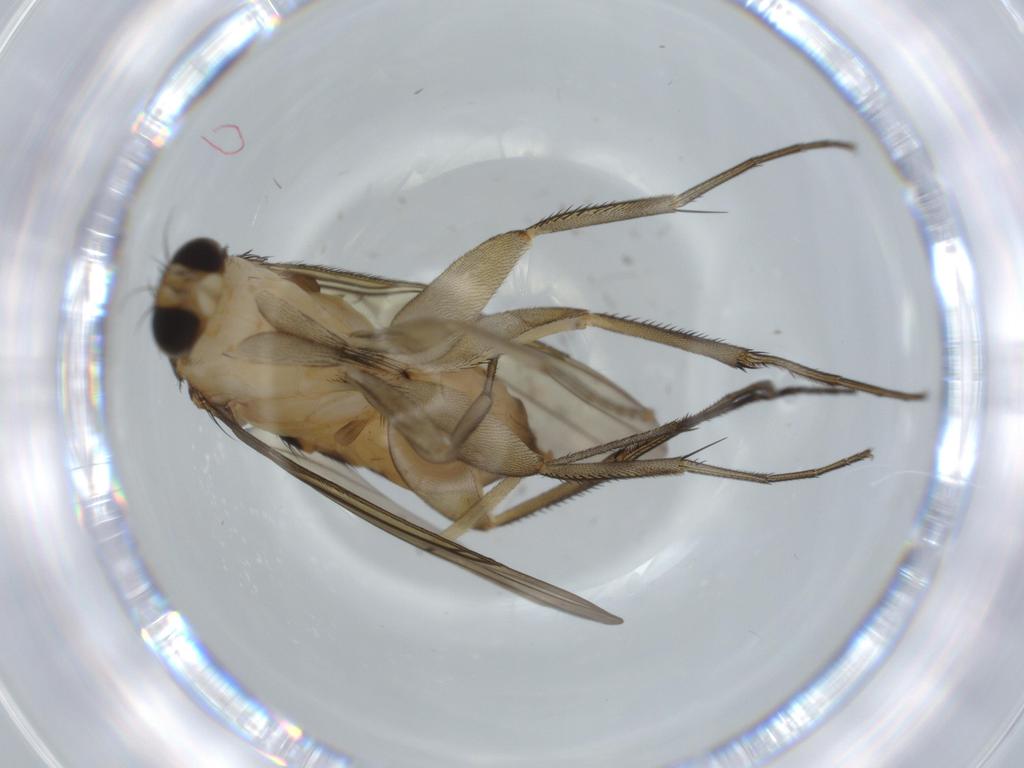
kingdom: Animalia
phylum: Arthropoda
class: Insecta
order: Diptera
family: Sciaridae
